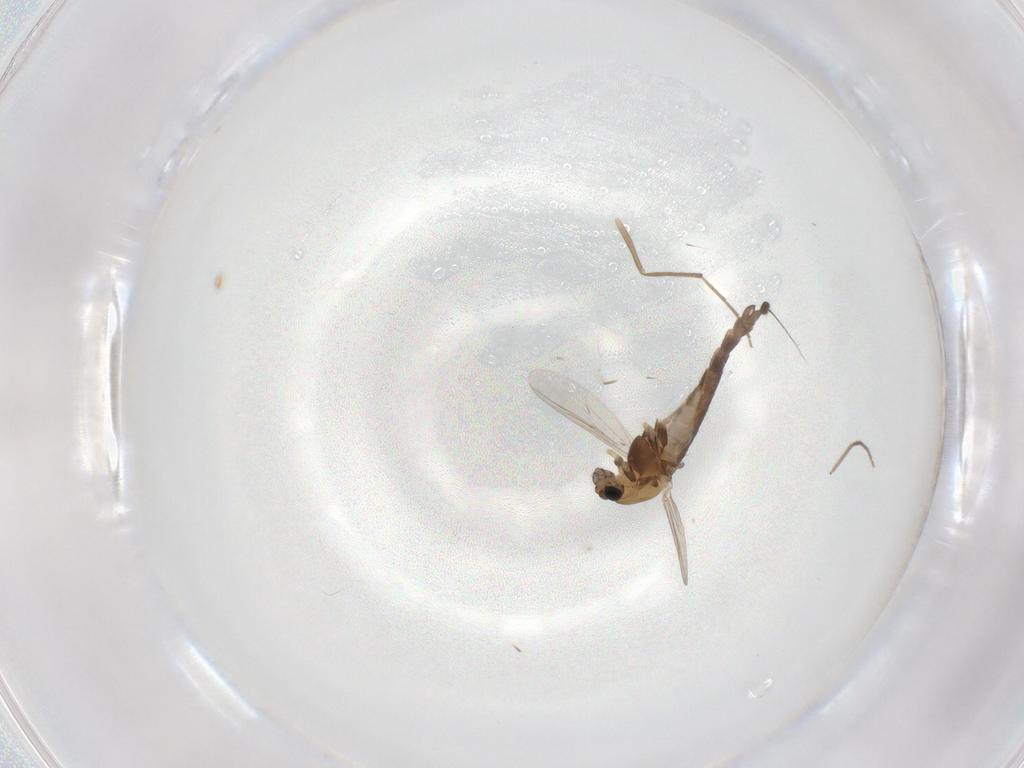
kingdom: Animalia
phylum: Arthropoda
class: Insecta
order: Diptera
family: Chironomidae
